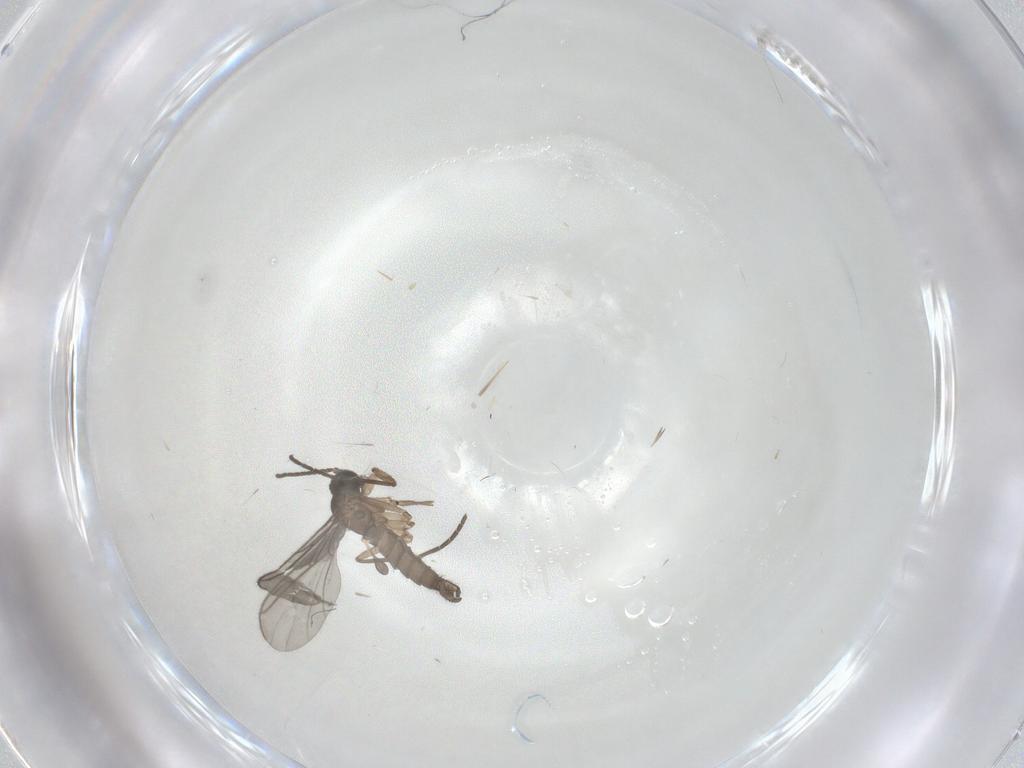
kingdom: Animalia
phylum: Arthropoda
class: Insecta
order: Diptera
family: Sciaridae
